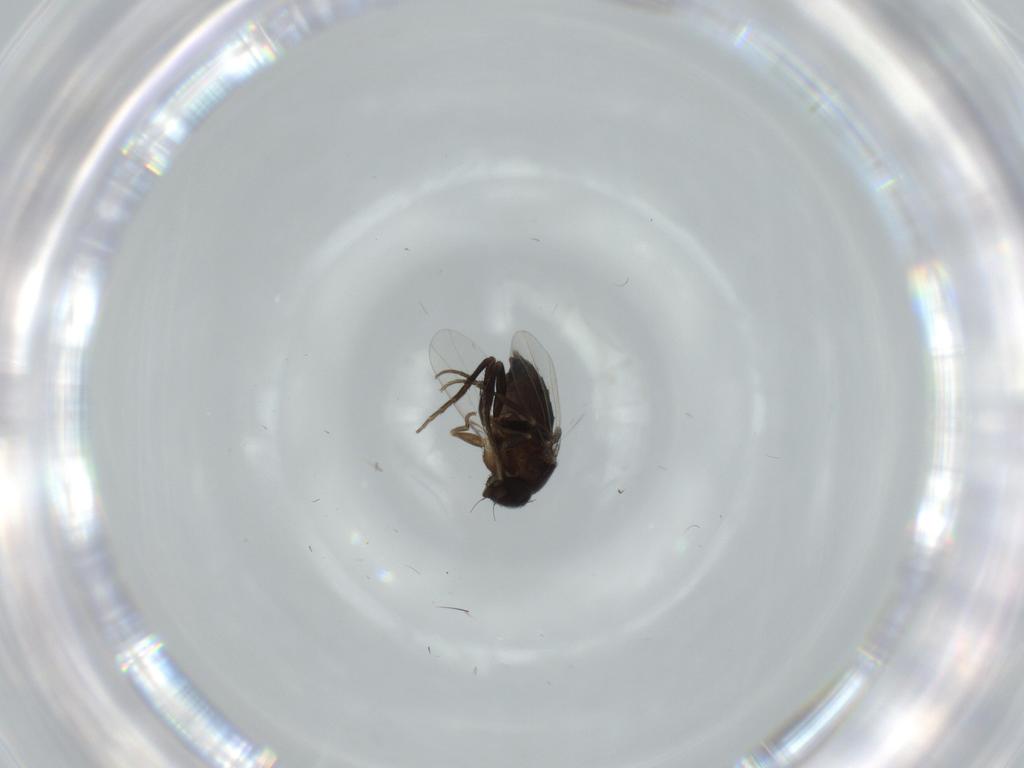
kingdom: Animalia
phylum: Arthropoda
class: Insecta
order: Diptera
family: Phoridae
